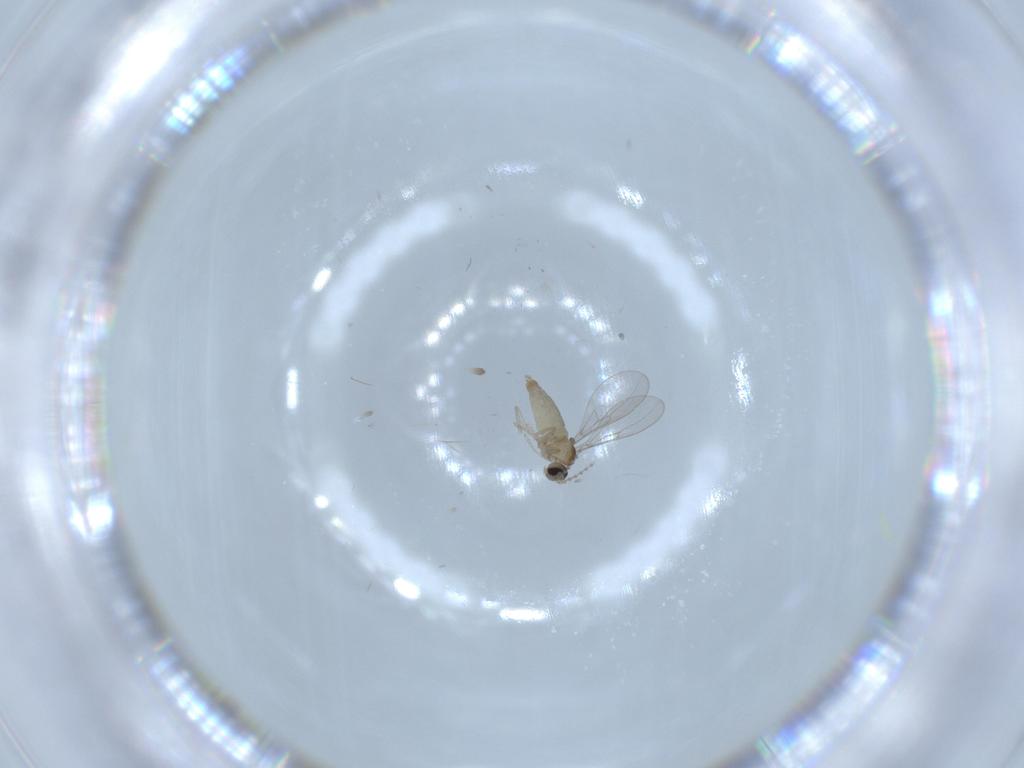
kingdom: Animalia
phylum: Arthropoda
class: Insecta
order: Diptera
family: Cecidomyiidae
